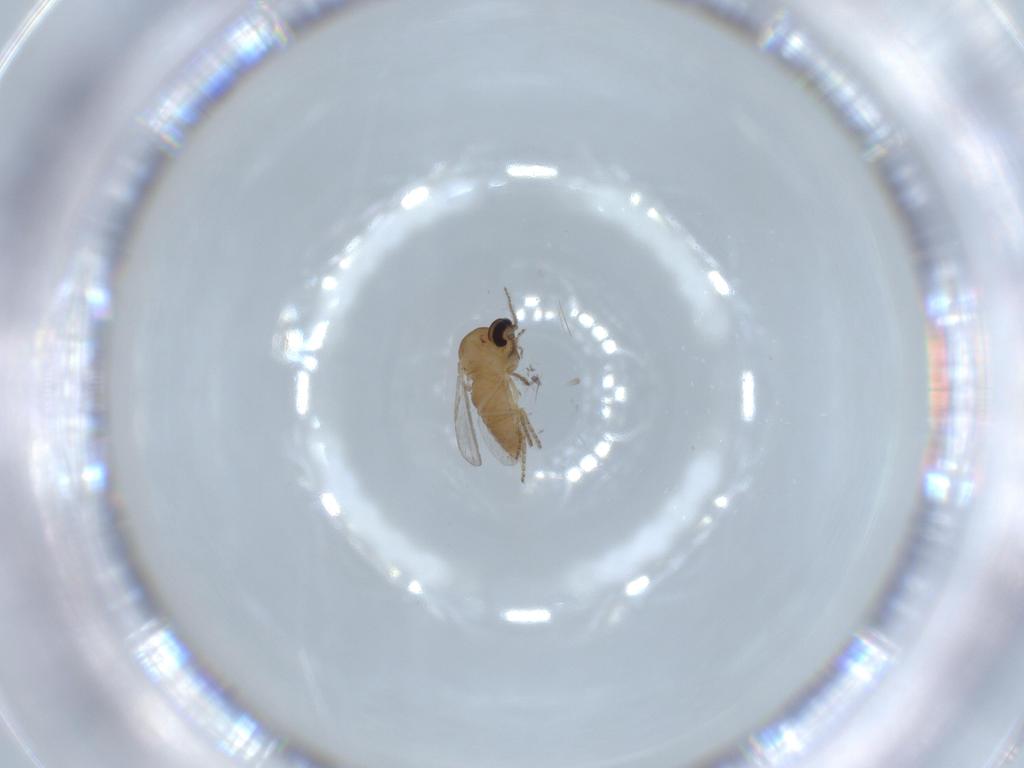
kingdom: Animalia
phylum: Arthropoda
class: Insecta
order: Diptera
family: Ceratopogonidae
